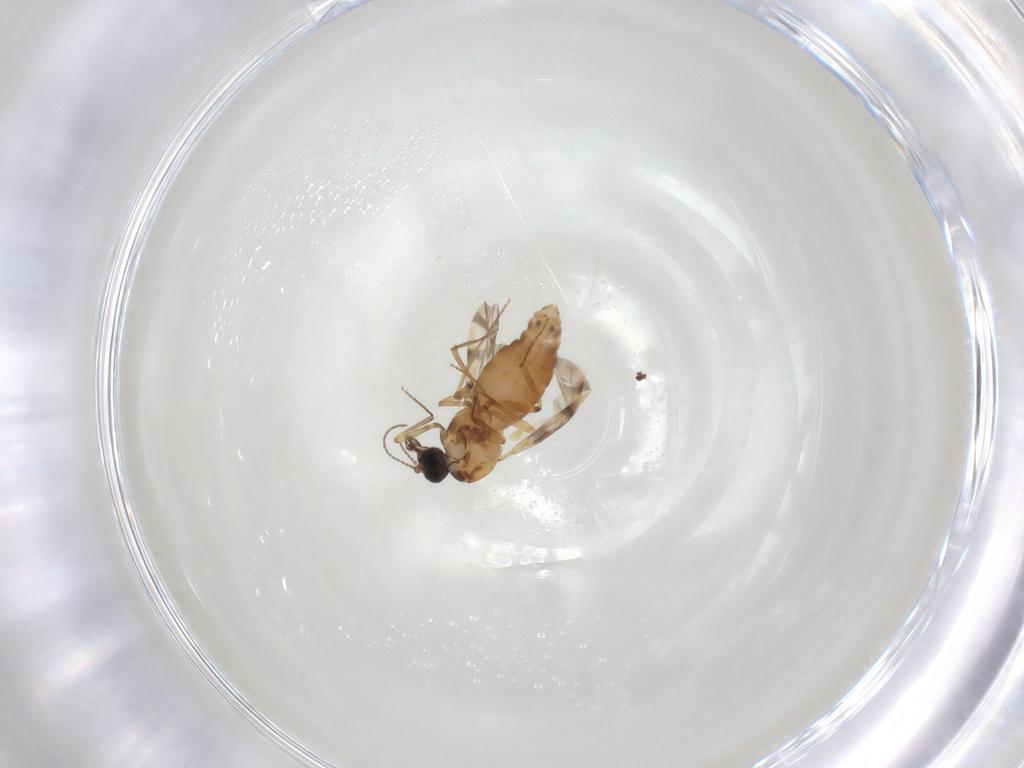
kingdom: Animalia
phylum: Arthropoda
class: Insecta
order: Diptera
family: Ceratopogonidae
